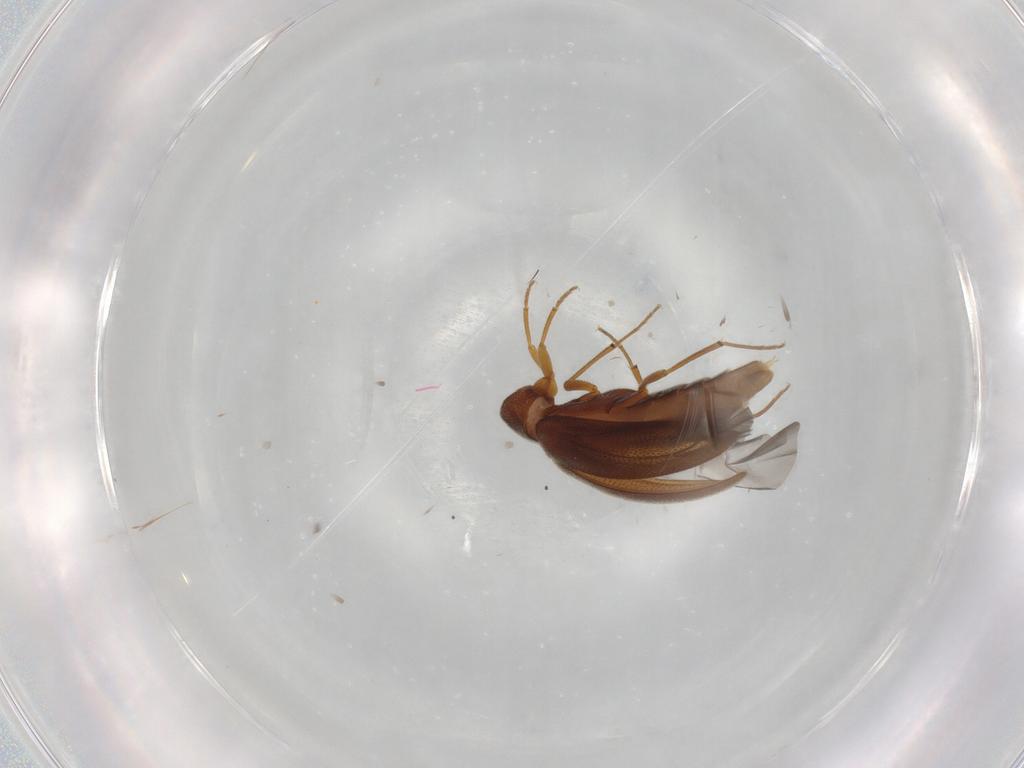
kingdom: Animalia
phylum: Arthropoda
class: Insecta
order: Coleoptera
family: Melandryidae
